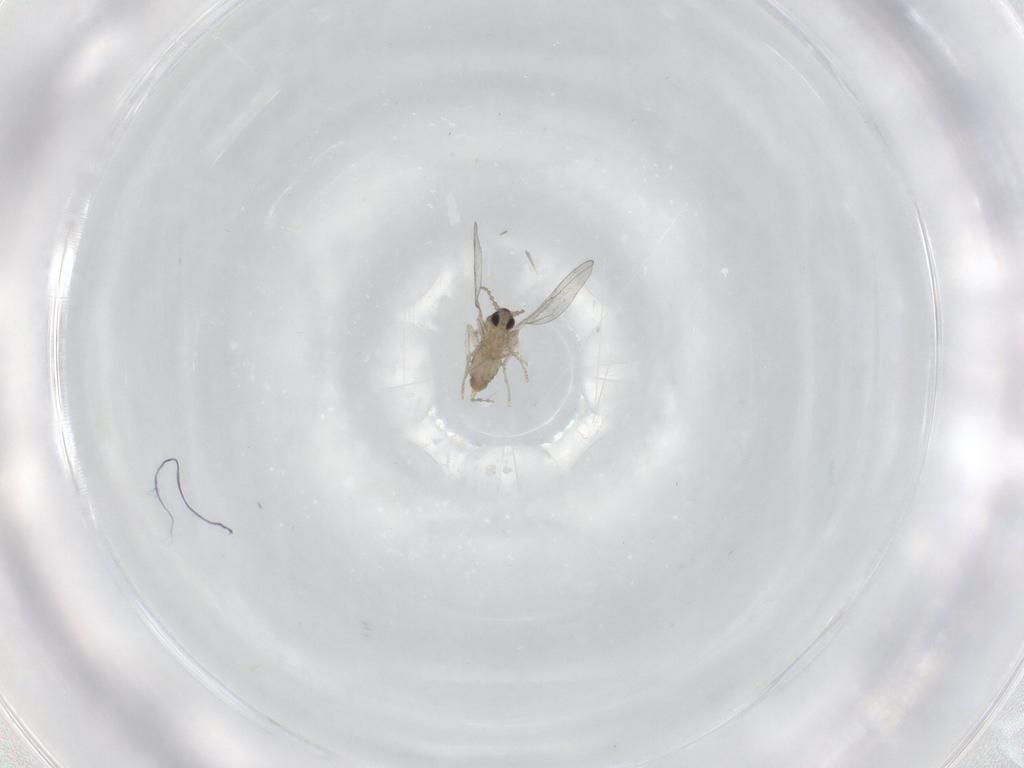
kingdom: Animalia
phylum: Arthropoda
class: Insecta
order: Diptera
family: Cecidomyiidae
